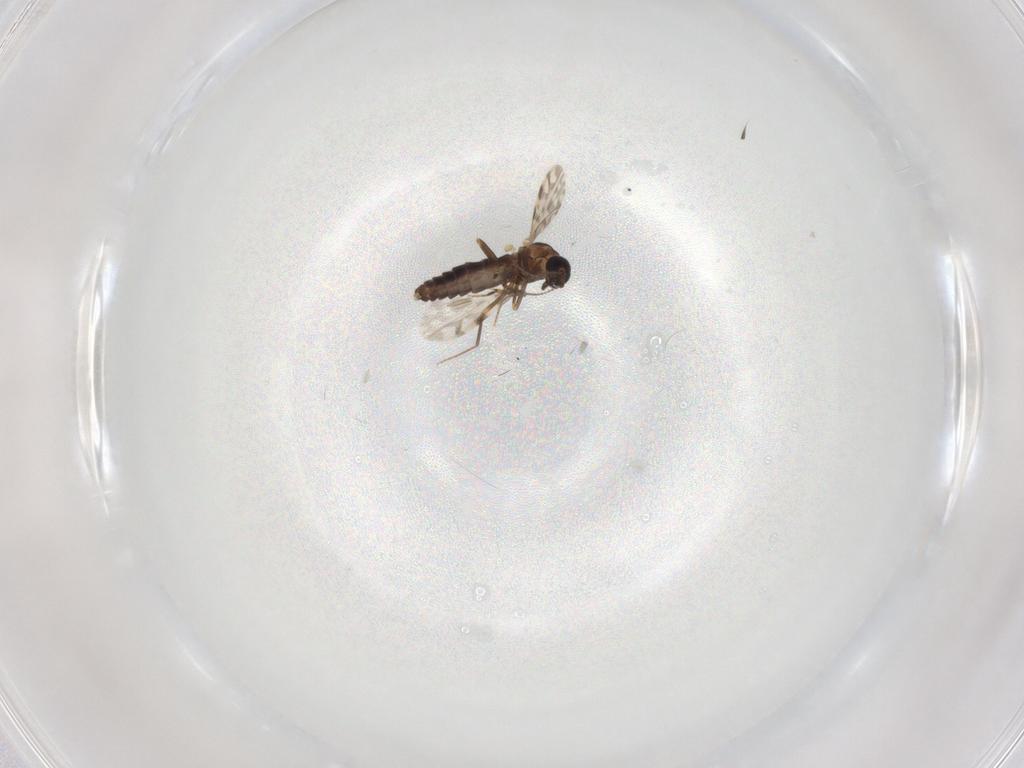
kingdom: Animalia
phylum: Arthropoda
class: Insecta
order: Diptera
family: Ceratopogonidae
